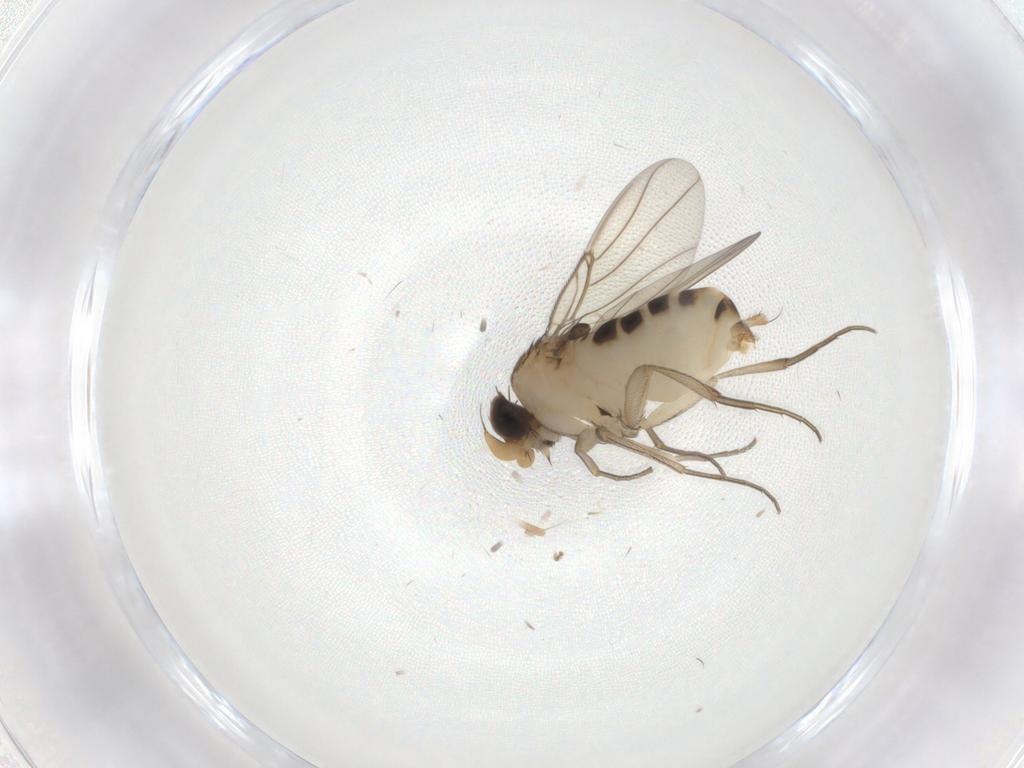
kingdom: Animalia
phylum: Arthropoda
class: Insecta
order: Diptera
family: Phoridae
